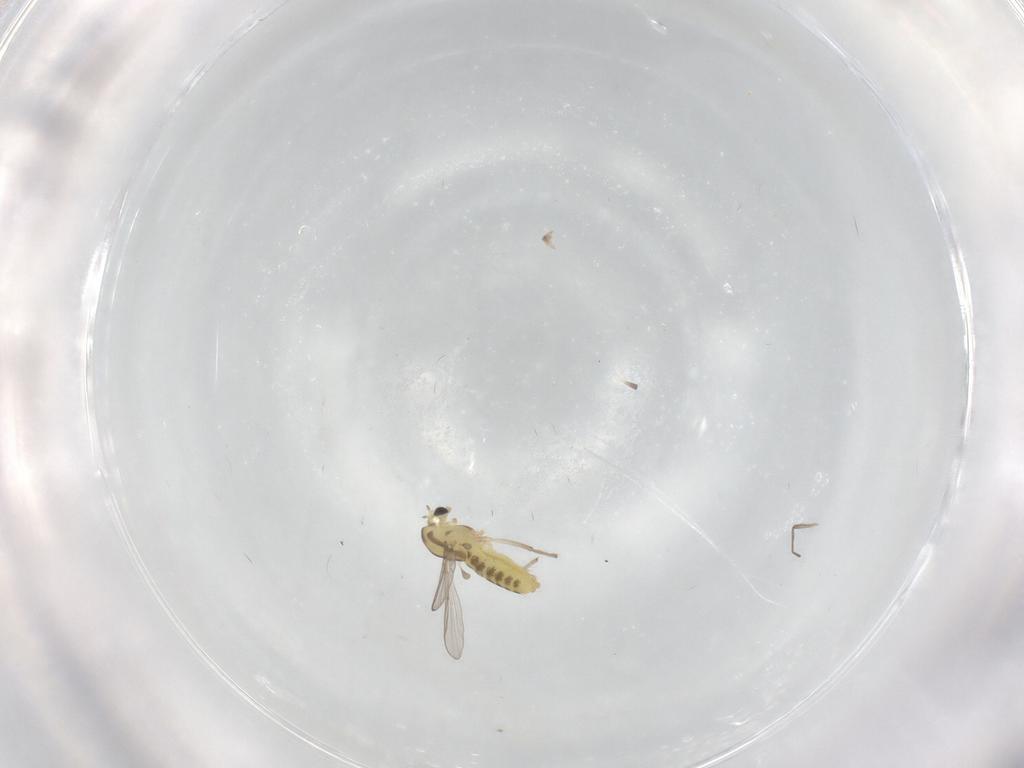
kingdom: Animalia
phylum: Arthropoda
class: Insecta
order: Diptera
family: Chironomidae
